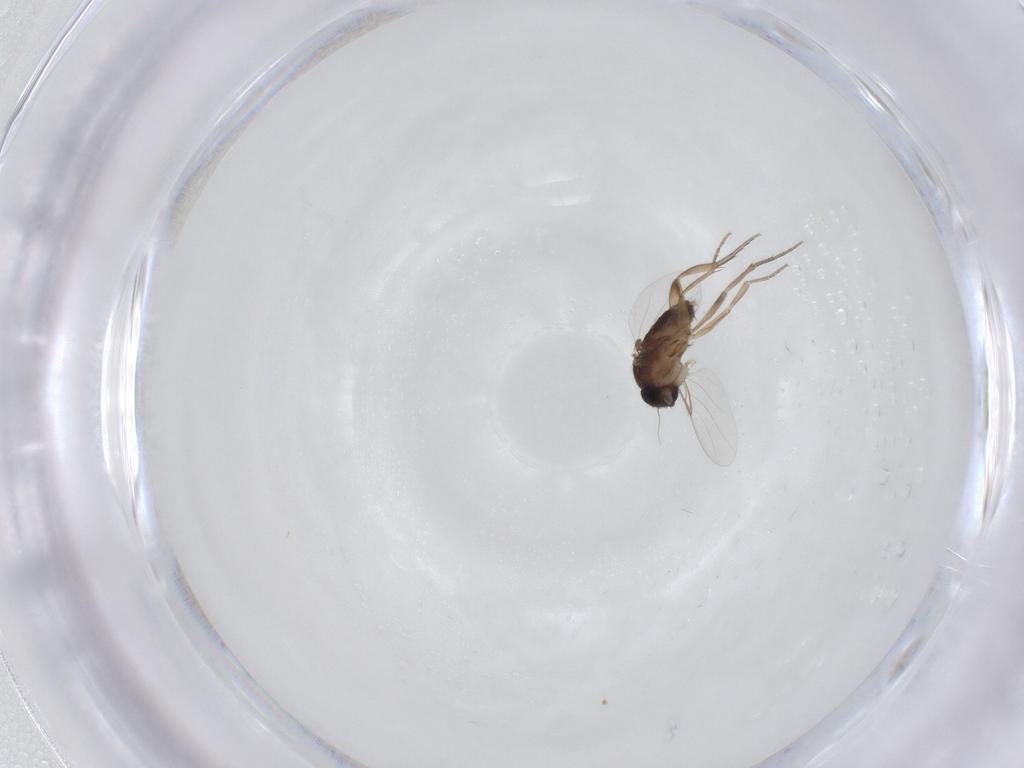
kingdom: Animalia
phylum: Arthropoda
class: Insecta
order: Diptera
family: Phoridae
